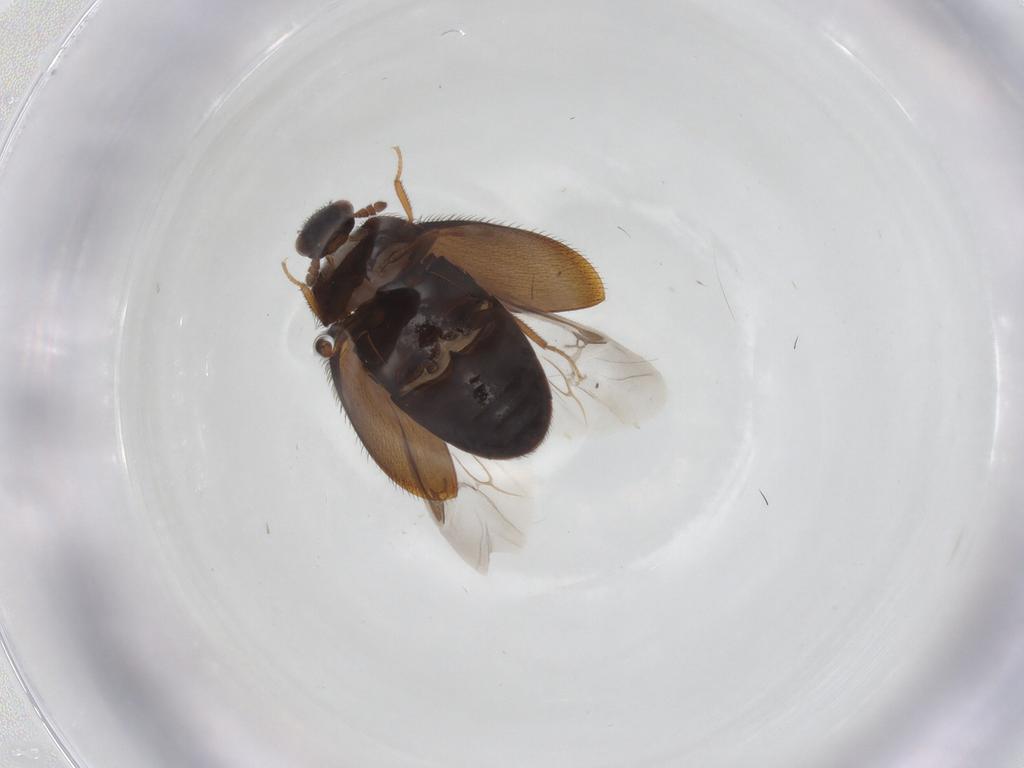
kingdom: Animalia
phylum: Arthropoda
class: Insecta
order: Coleoptera
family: Dermestidae
